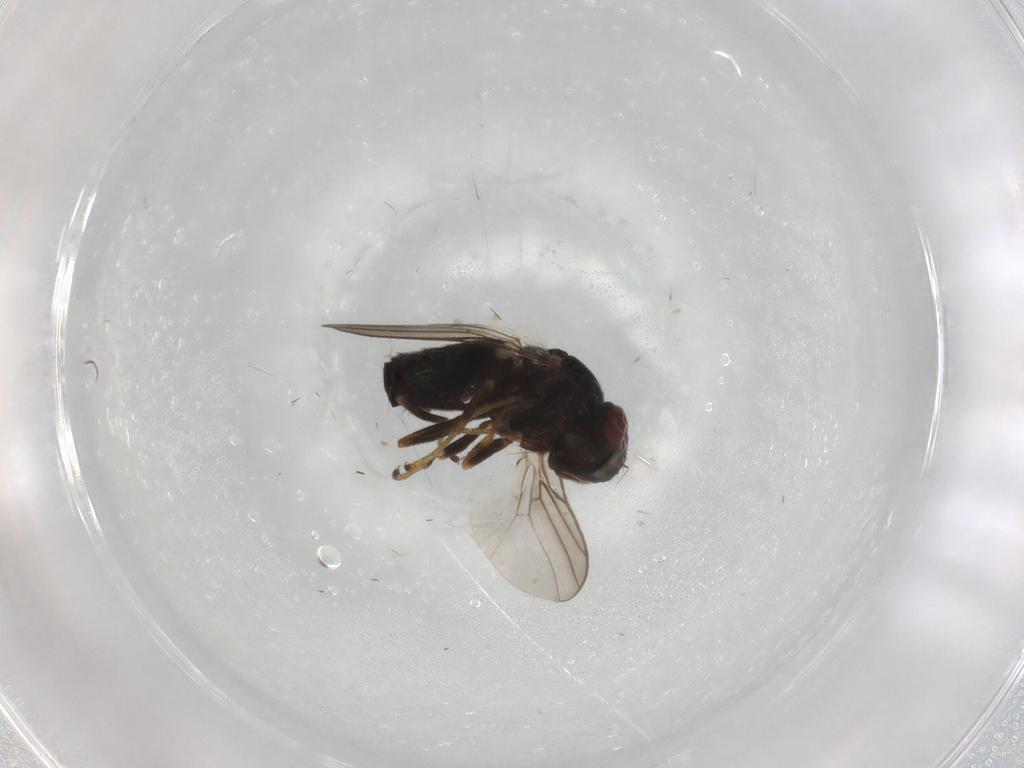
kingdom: Animalia
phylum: Arthropoda
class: Insecta
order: Diptera
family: Chloropidae
